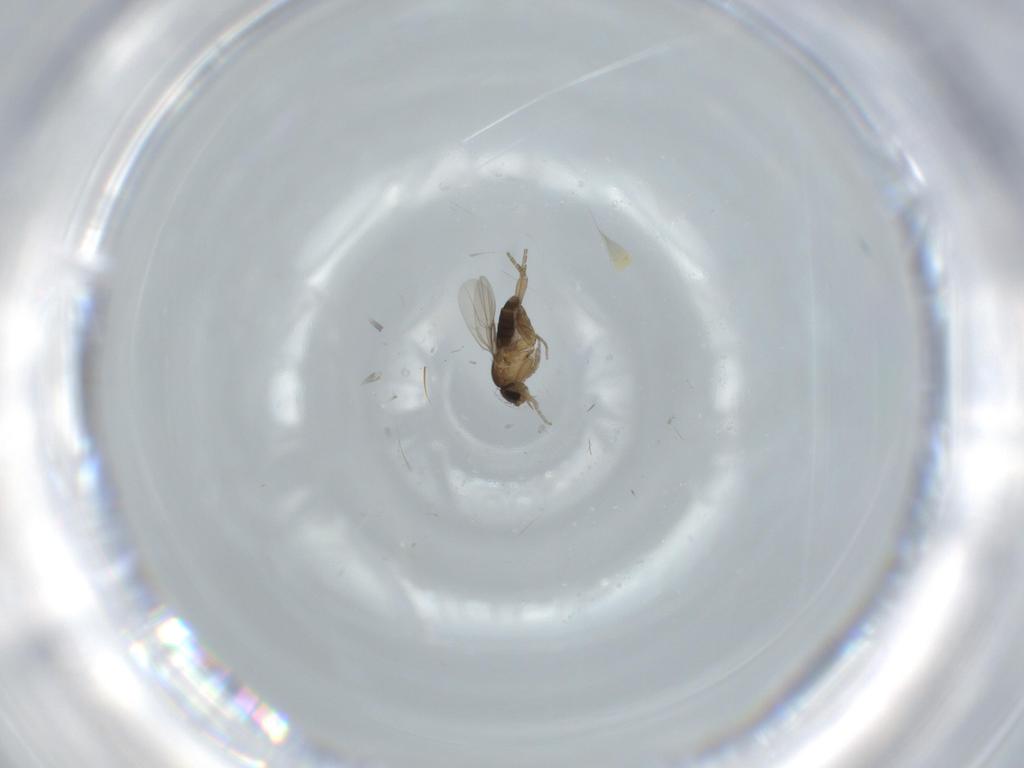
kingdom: Animalia
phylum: Arthropoda
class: Insecta
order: Diptera
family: Phoridae
